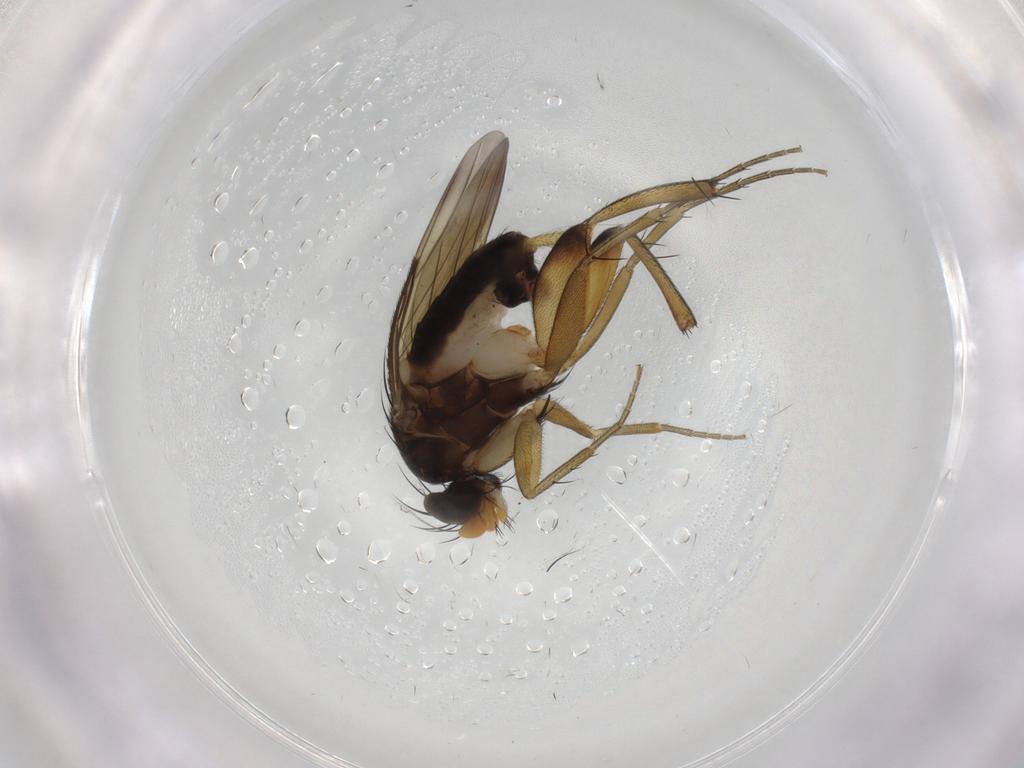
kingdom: Animalia
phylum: Arthropoda
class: Insecta
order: Diptera
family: Phoridae
